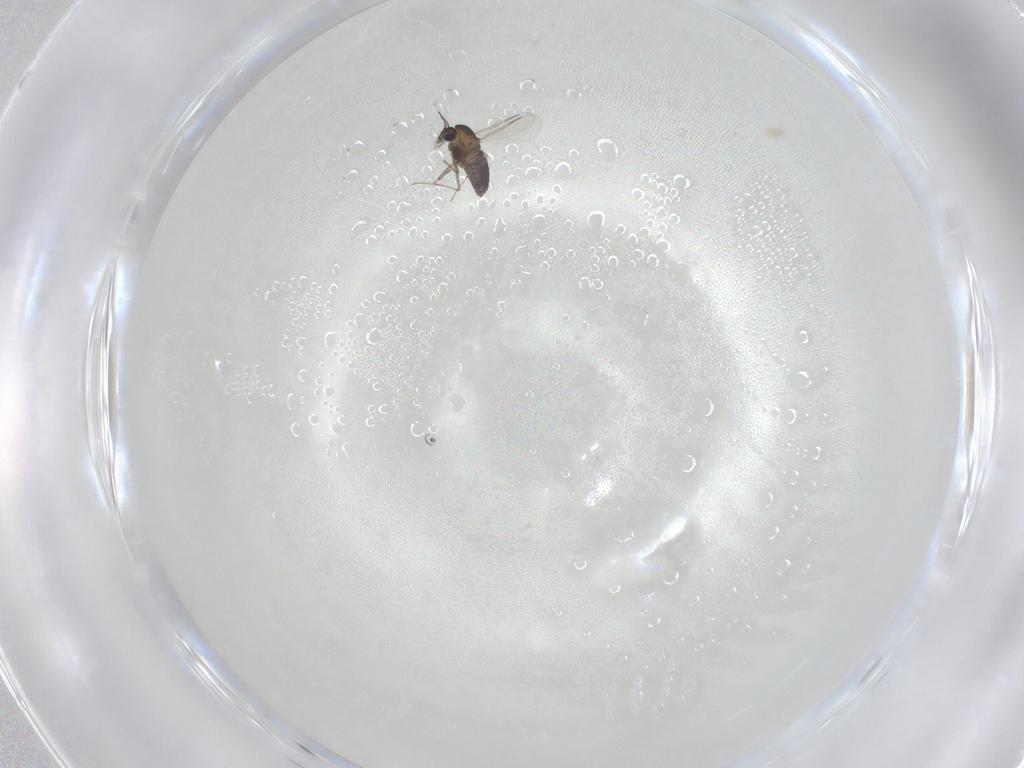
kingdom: Animalia
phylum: Arthropoda
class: Insecta
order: Diptera
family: Chironomidae
